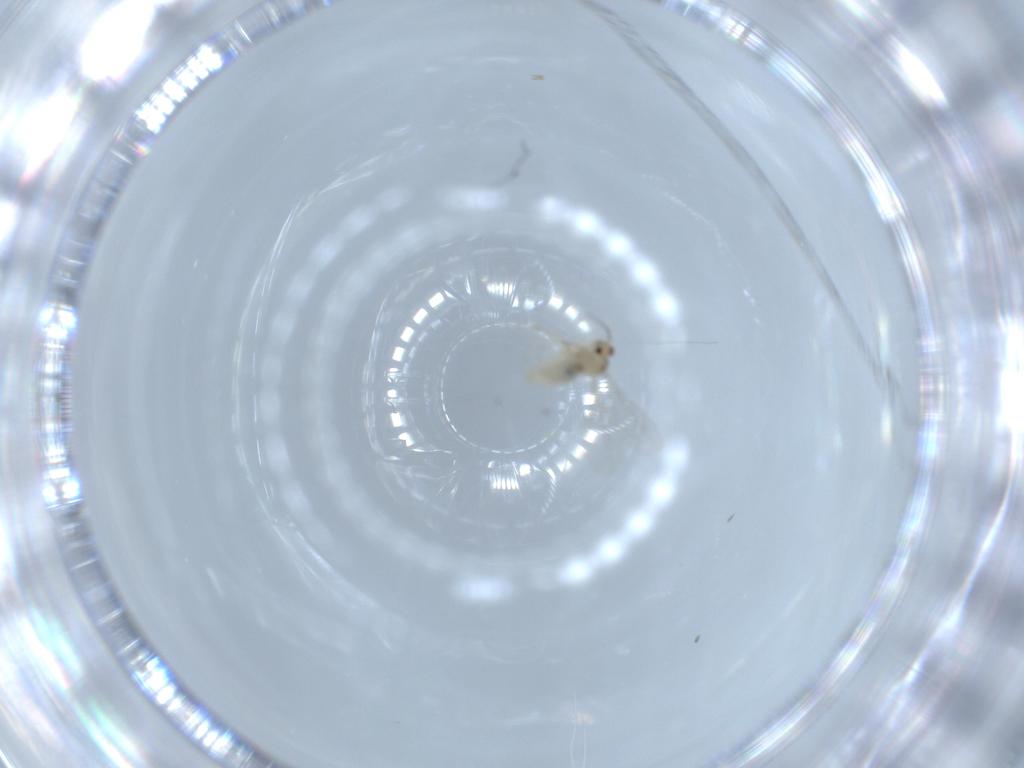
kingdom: Animalia
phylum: Arthropoda
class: Insecta
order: Diptera
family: Cecidomyiidae
